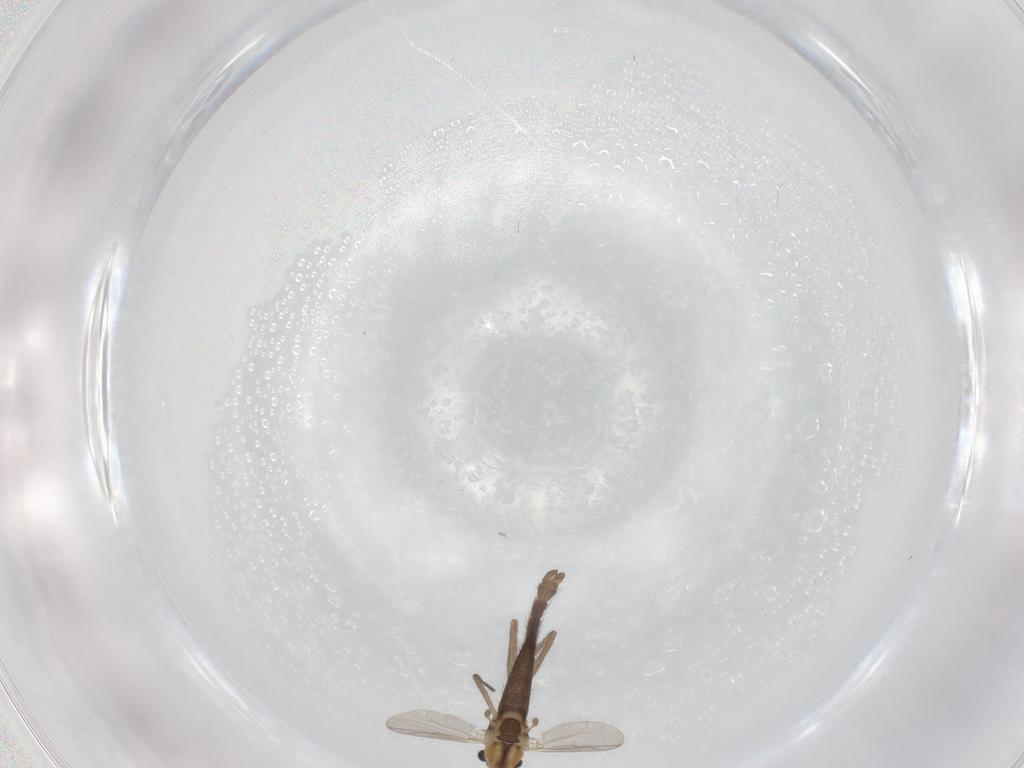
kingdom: Animalia
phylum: Arthropoda
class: Insecta
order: Diptera
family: Chironomidae
